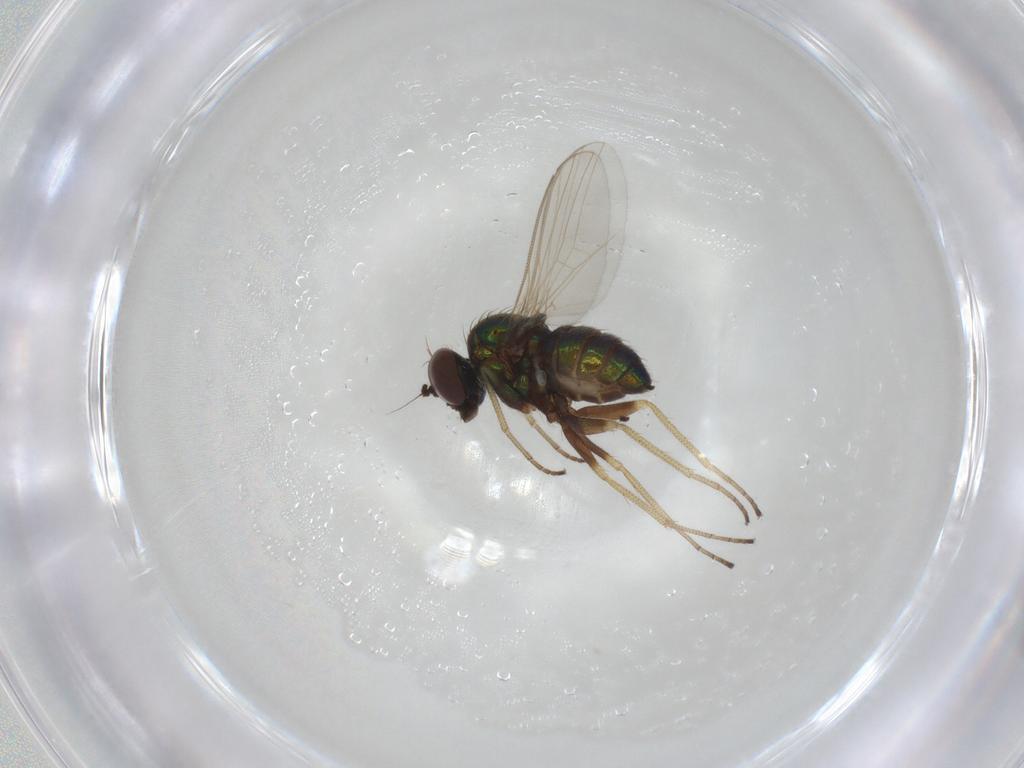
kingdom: Animalia
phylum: Arthropoda
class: Insecta
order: Diptera
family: Dolichopodidae
